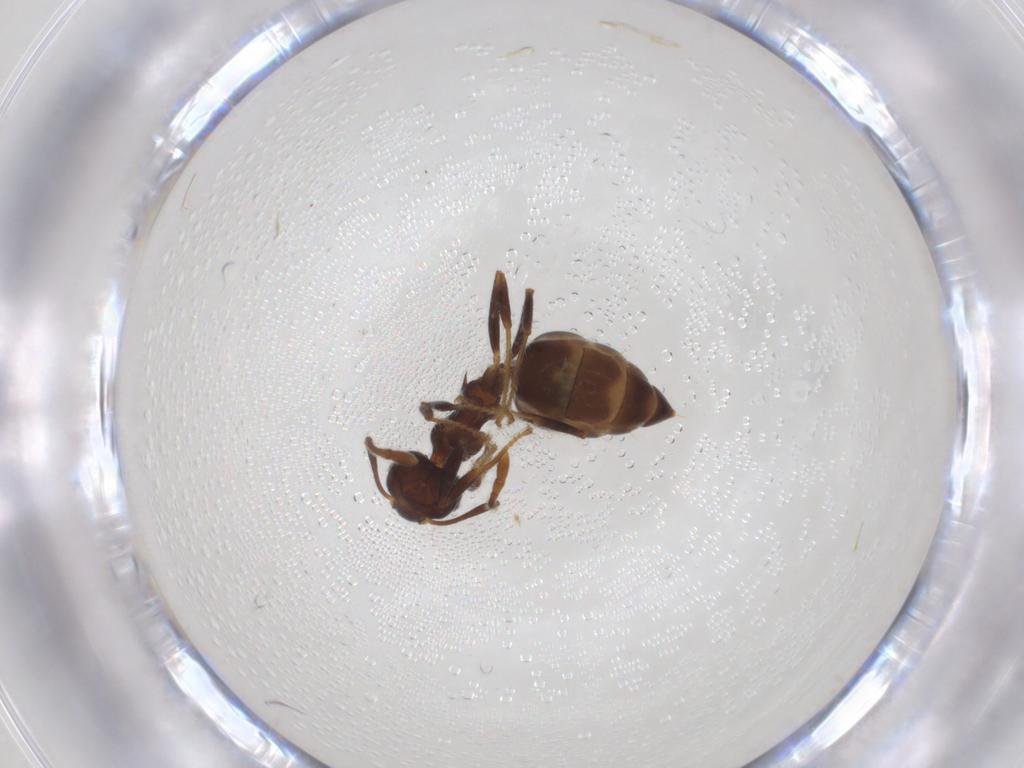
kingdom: Animalia
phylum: Arthropoda
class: Insecta
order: Hymenoptera
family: Formicidae
